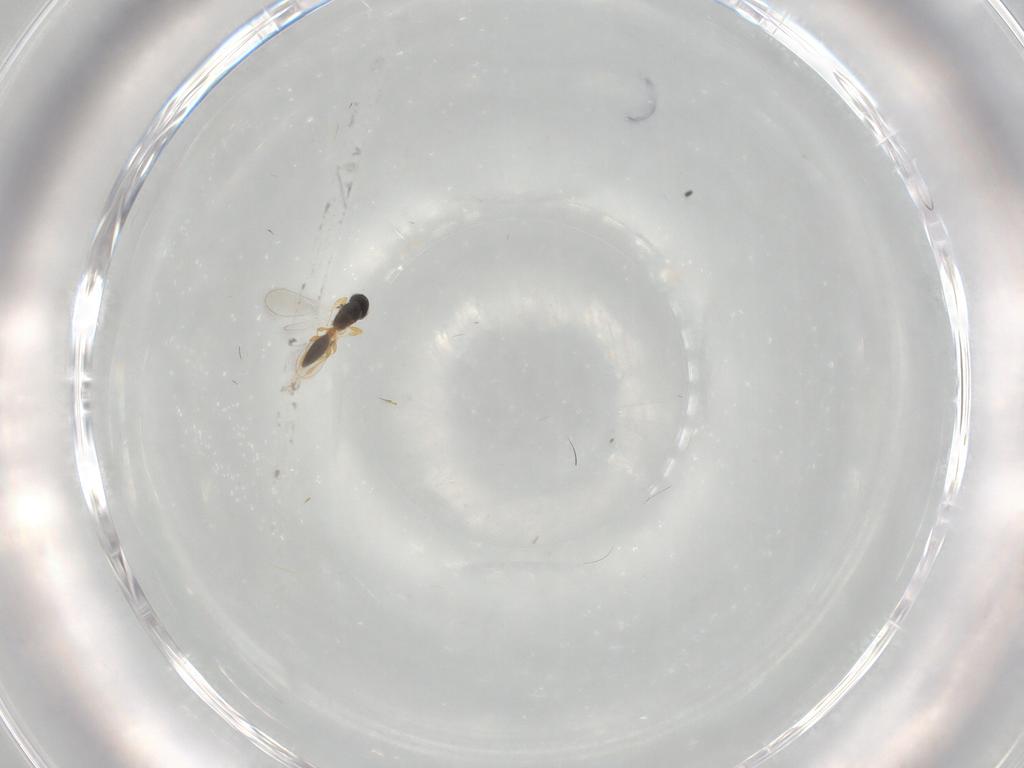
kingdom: Animalia
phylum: Arthropoda
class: Insecta
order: Hymenoptera
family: Platygastridae
